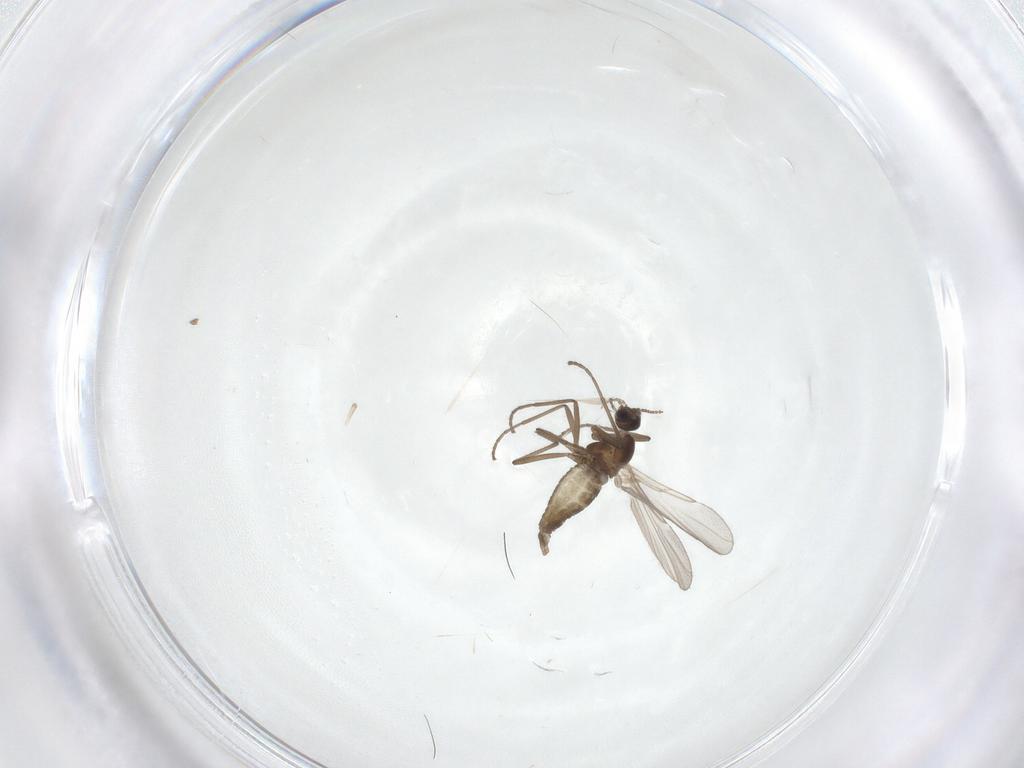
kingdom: Animalia
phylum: Arthropoda
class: Insecta
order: Diptera
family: Cecidomyiidae
